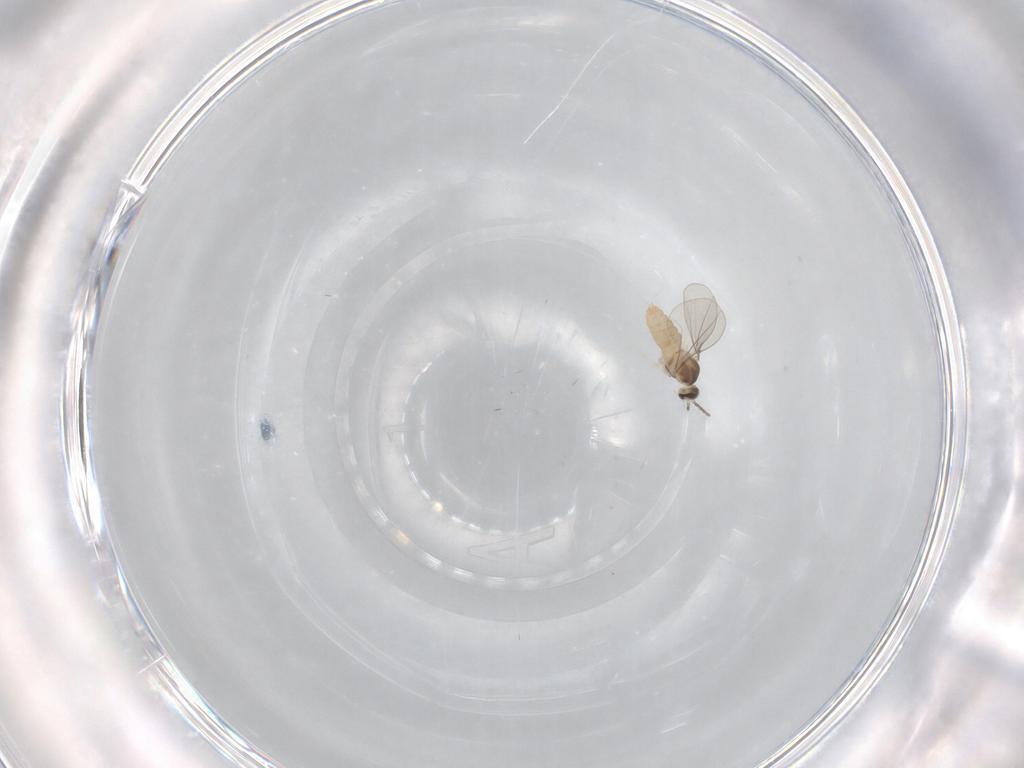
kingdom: Animalia
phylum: Arthropoda
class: Insecta
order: Diptera
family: Cecidomyiidae
